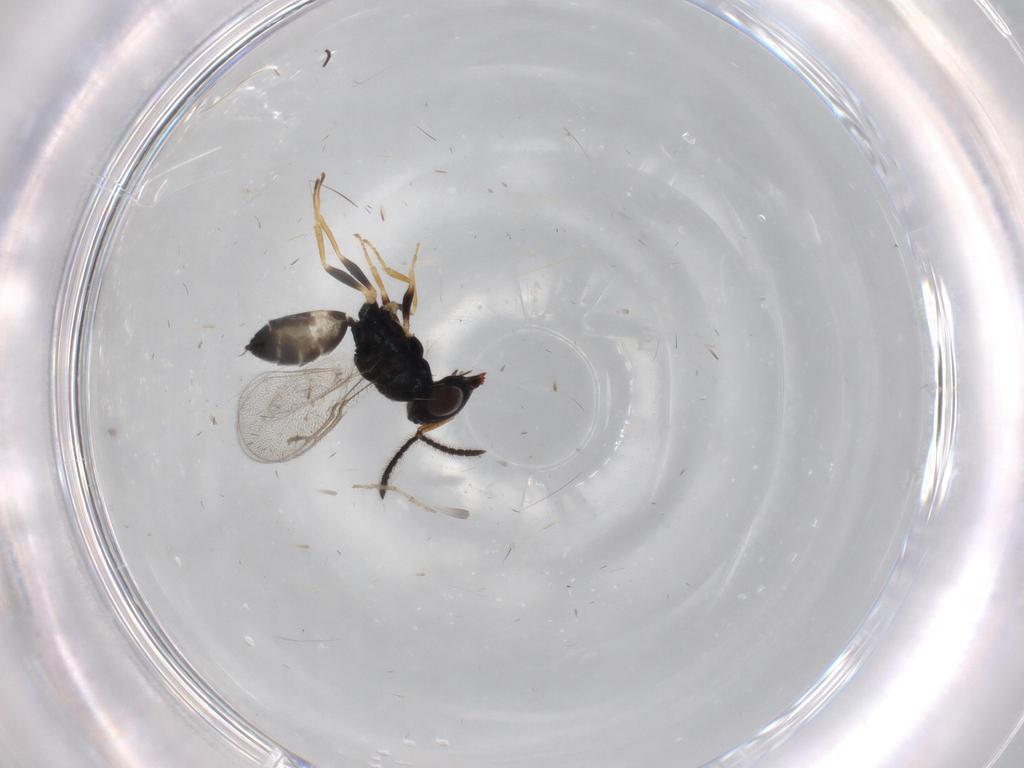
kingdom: Animalia
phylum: Arthropoda
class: Insecta
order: Hymenoptera
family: Pteromalidae
